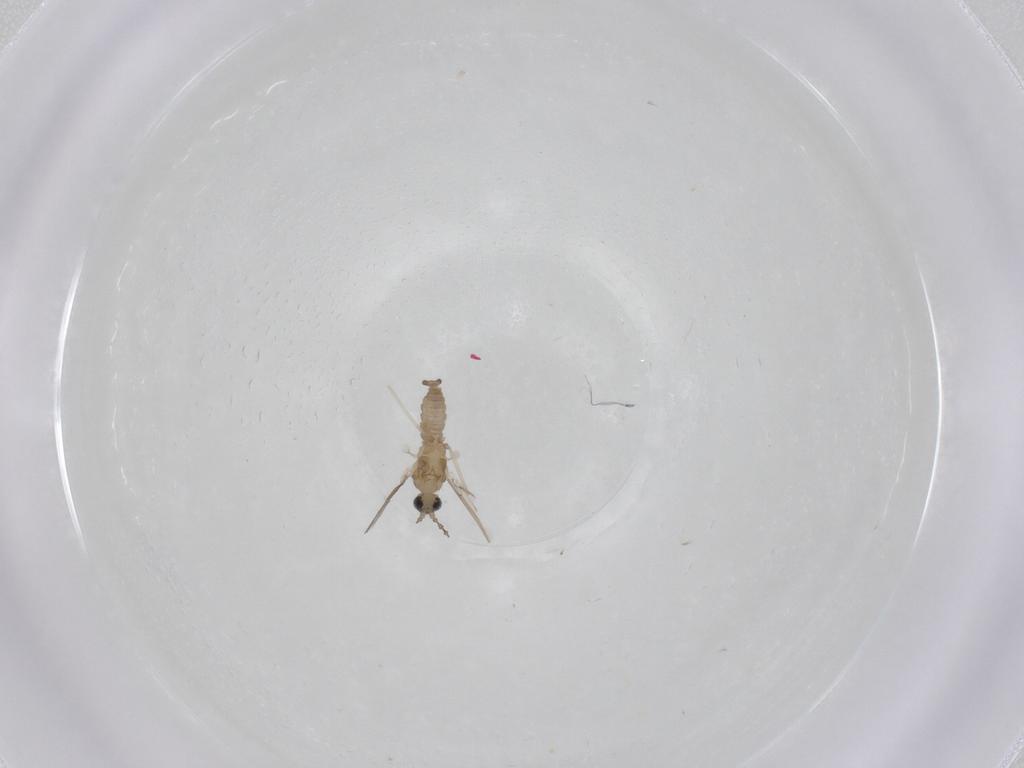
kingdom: Animalia
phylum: Arthropoda
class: Insecta
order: Diptera
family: Cecidomyiidae
